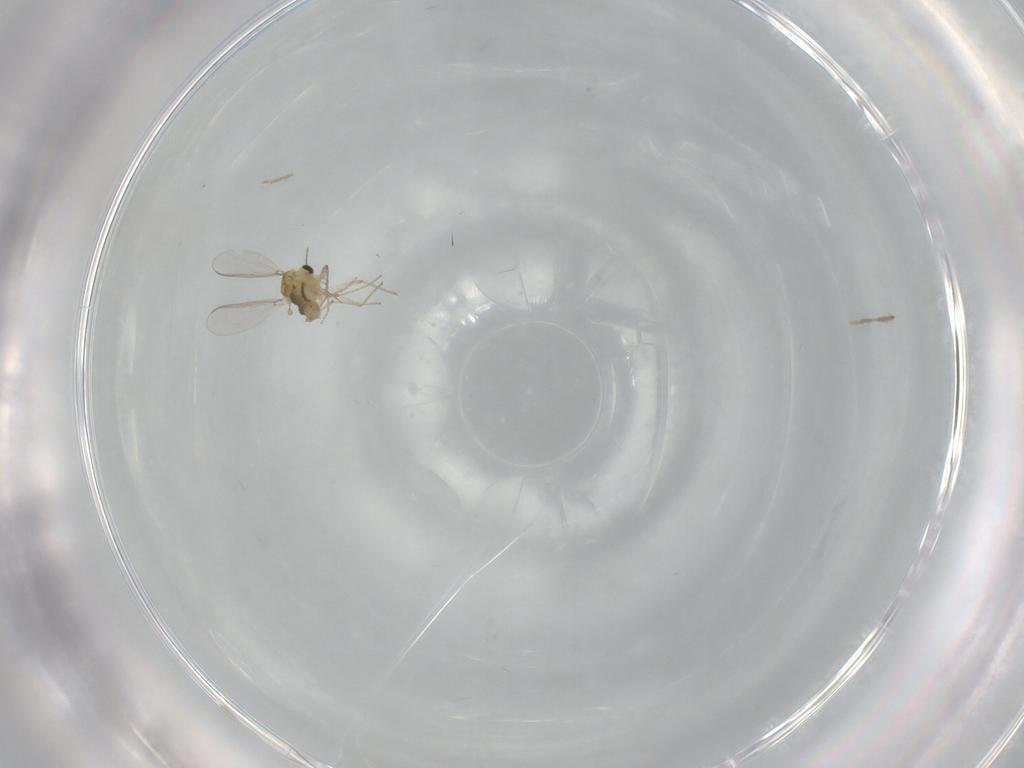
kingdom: Animalia
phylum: Arthropoda
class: Insecta
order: Diptera
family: Chironomidae
